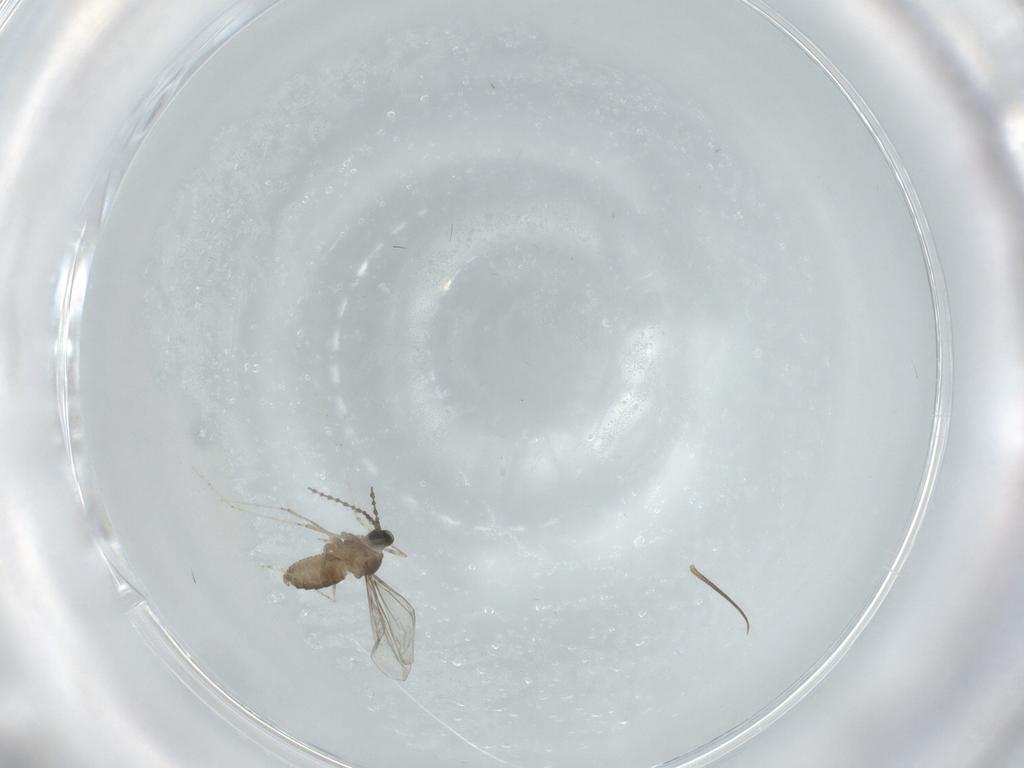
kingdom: Animalia
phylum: Arthropoda
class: Insecta
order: Diptera
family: Cecidomyiidae
